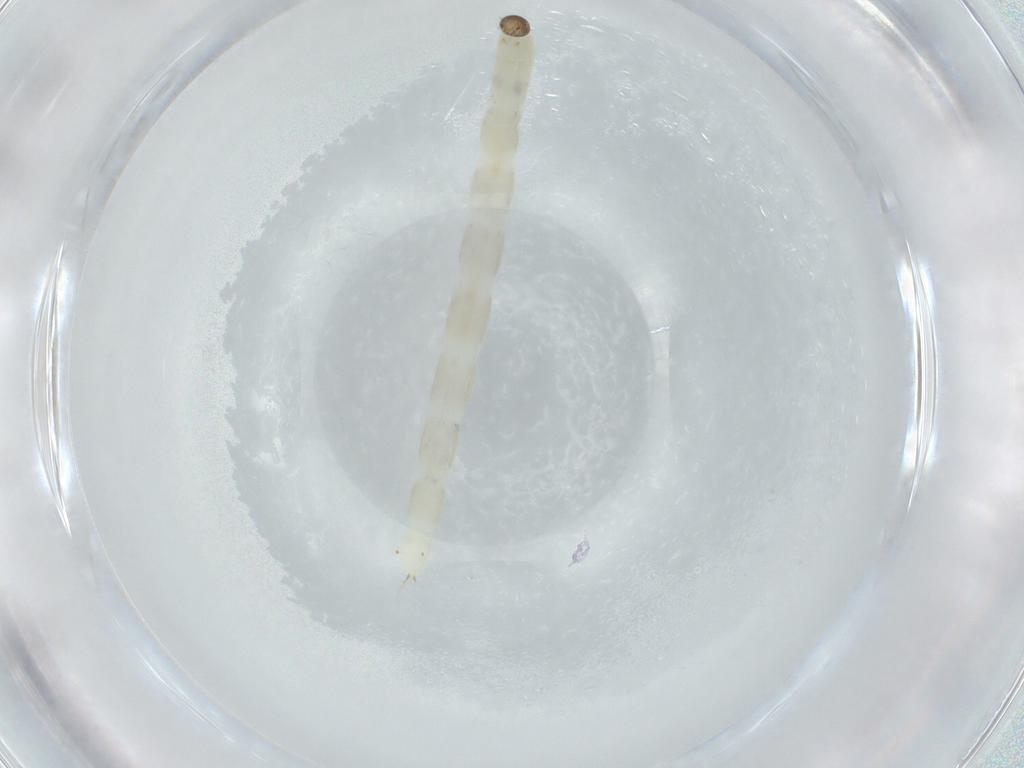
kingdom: Animalia
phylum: Arthropoda
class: Insecta
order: Diptera
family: Chironomidae
